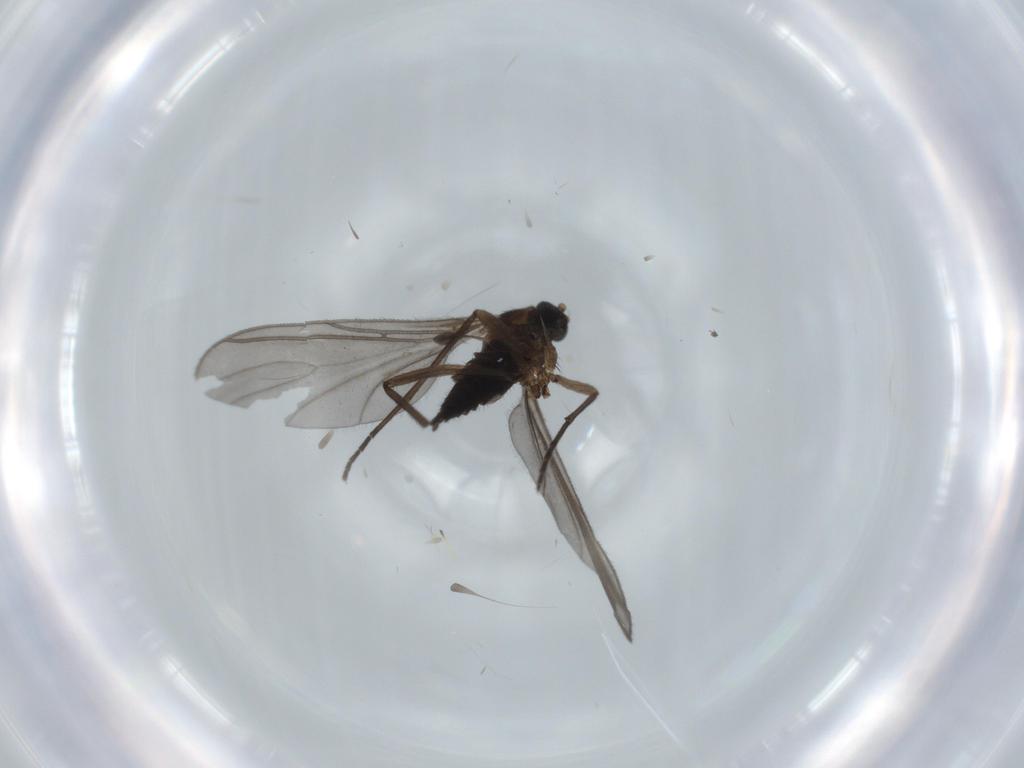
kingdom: Animalia
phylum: Arthropoda
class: Insecta
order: Diptera
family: Sciaridae
